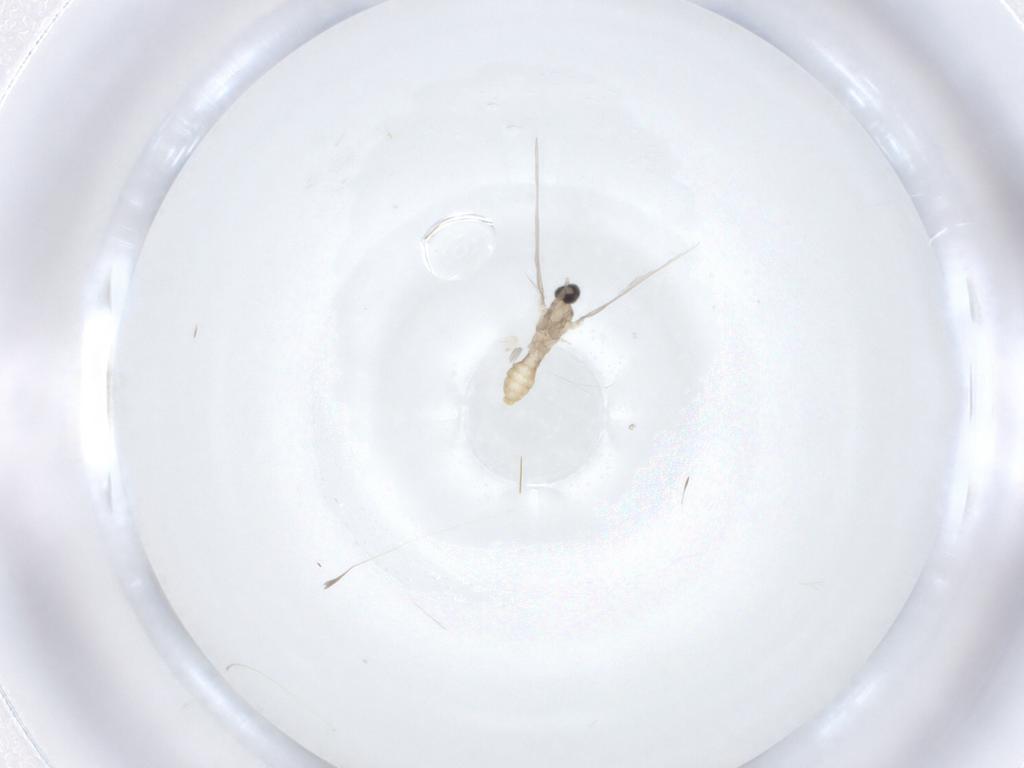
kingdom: Animalia
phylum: Arthropoda
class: Insecta
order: Diptera
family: Cecidomyiidae
